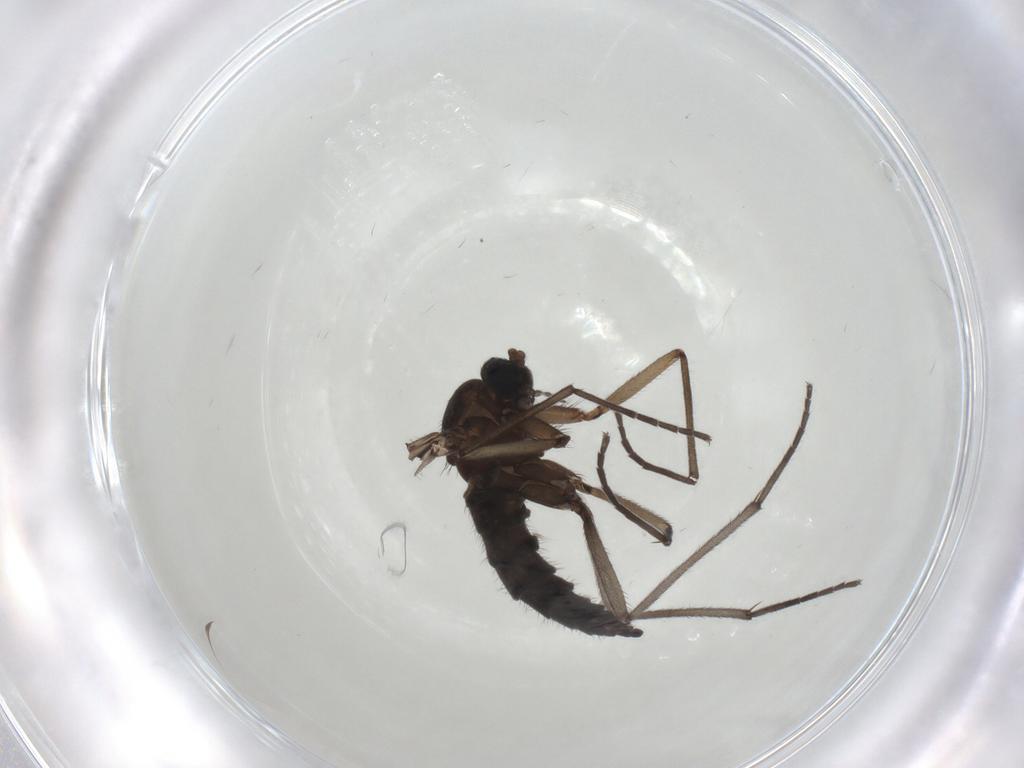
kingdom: Animalia
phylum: Arthropoda
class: Insecta
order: Diptera
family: Sciaridae
